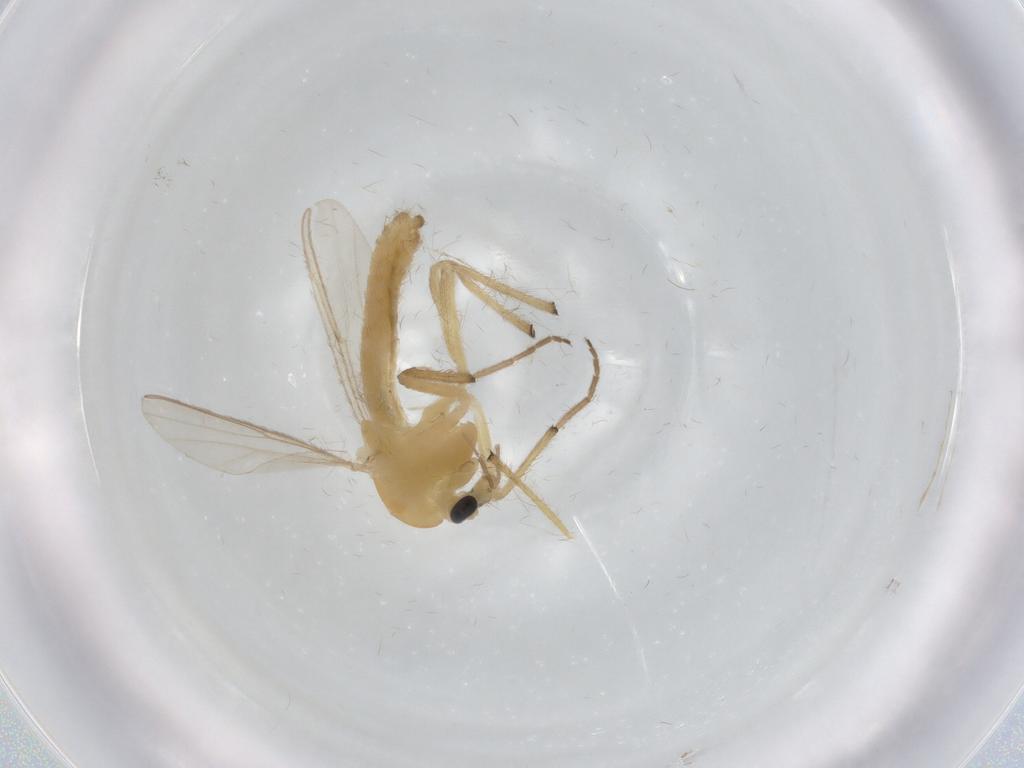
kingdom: Animalia
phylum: Arthropoda
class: Insecta
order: Diptera
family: Chironomidae
